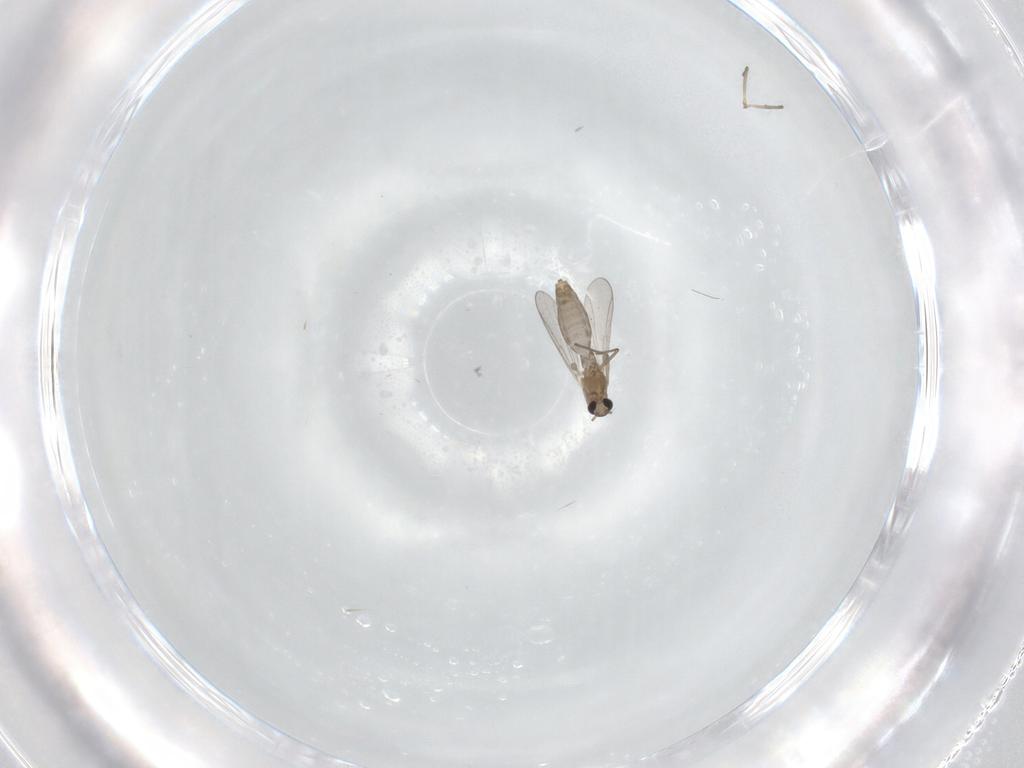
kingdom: Animalia
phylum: Arthropoda
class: Insecta
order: Diptera
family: Chironomidae
